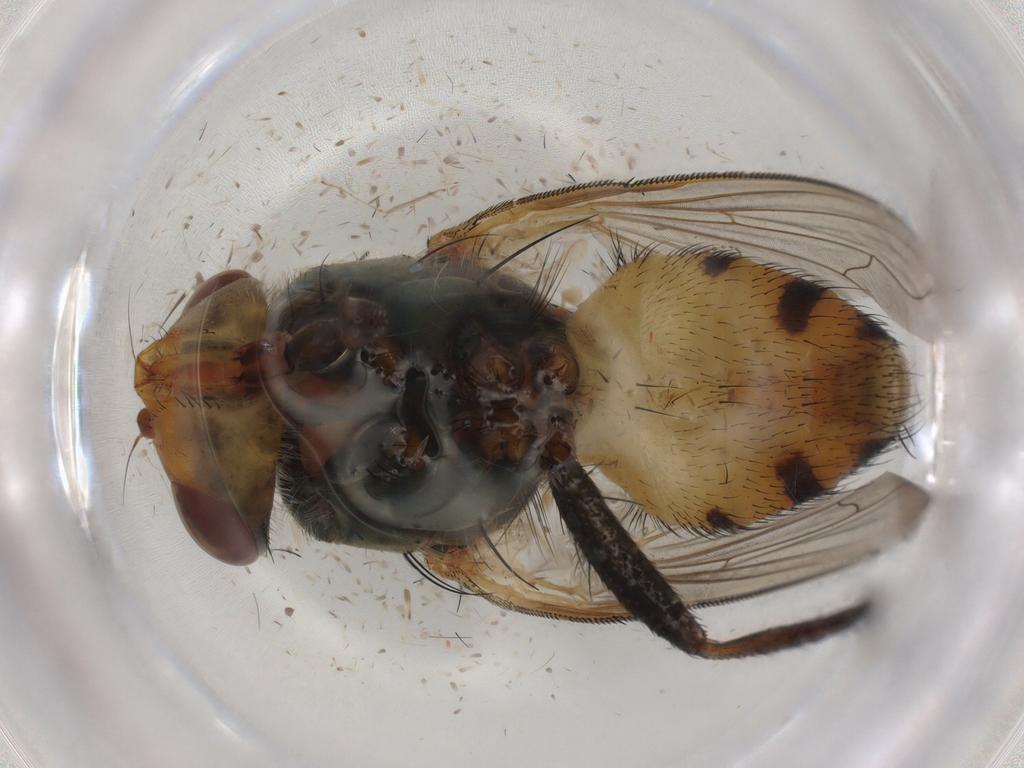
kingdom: Animalia
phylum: Arthropoda
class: Insecta
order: Diptera
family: Calliphoridae
